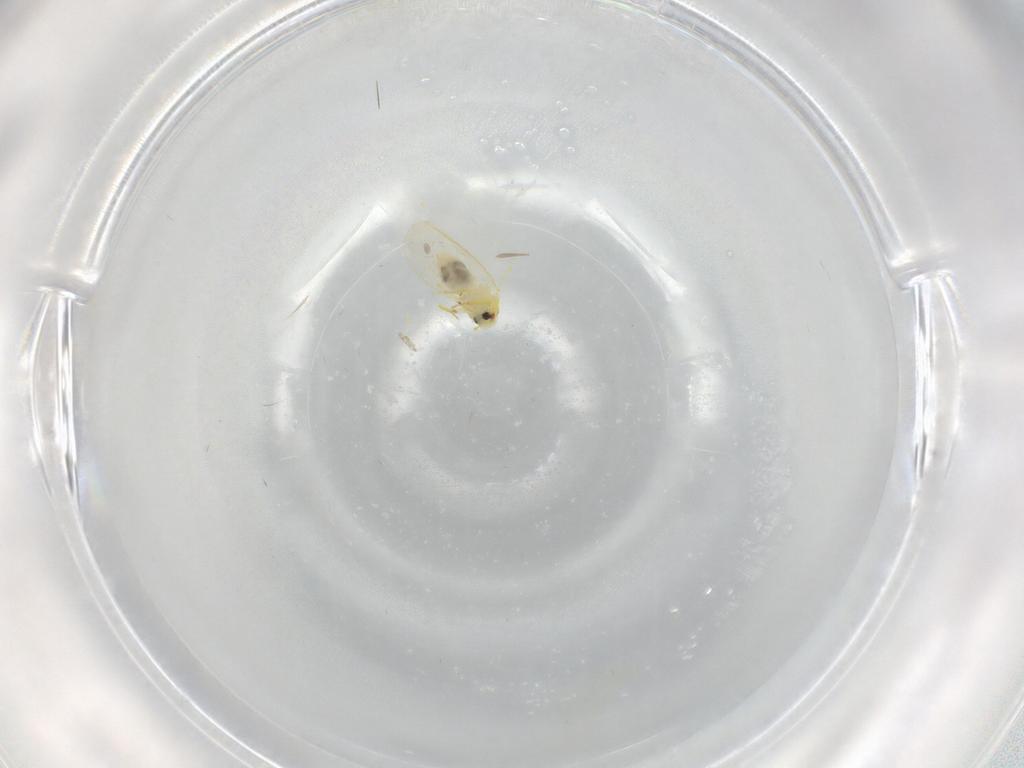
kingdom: Animalia
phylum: Arthropoda
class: Insecta
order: Hemiptera
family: Aleyrodidae
